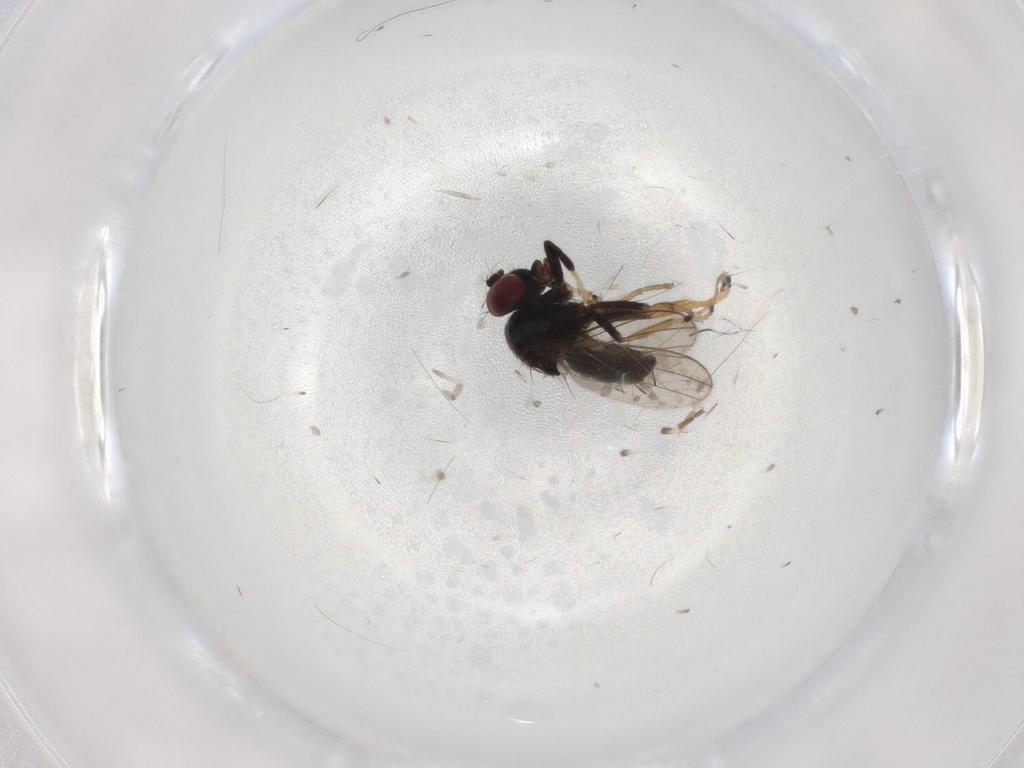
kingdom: Animalia
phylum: Arthropoda
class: Insecta
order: Diptera
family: Ephydridae
